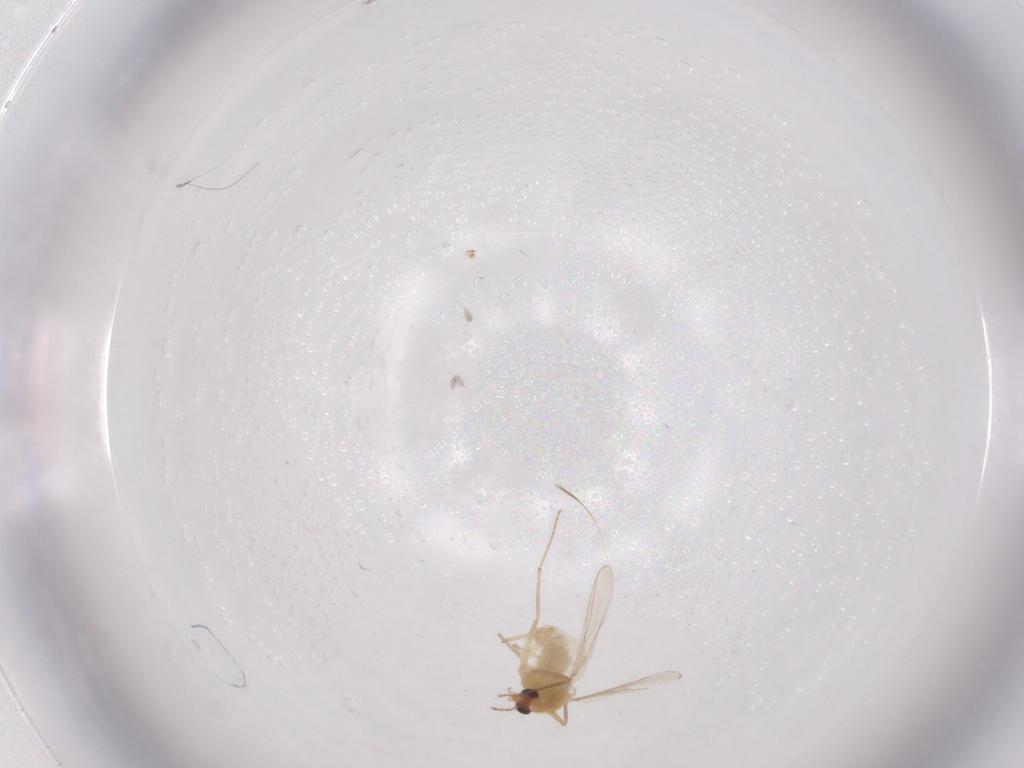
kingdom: Animalia
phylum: Arthropoda
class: Insecta
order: Diptera
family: Chironomidae
